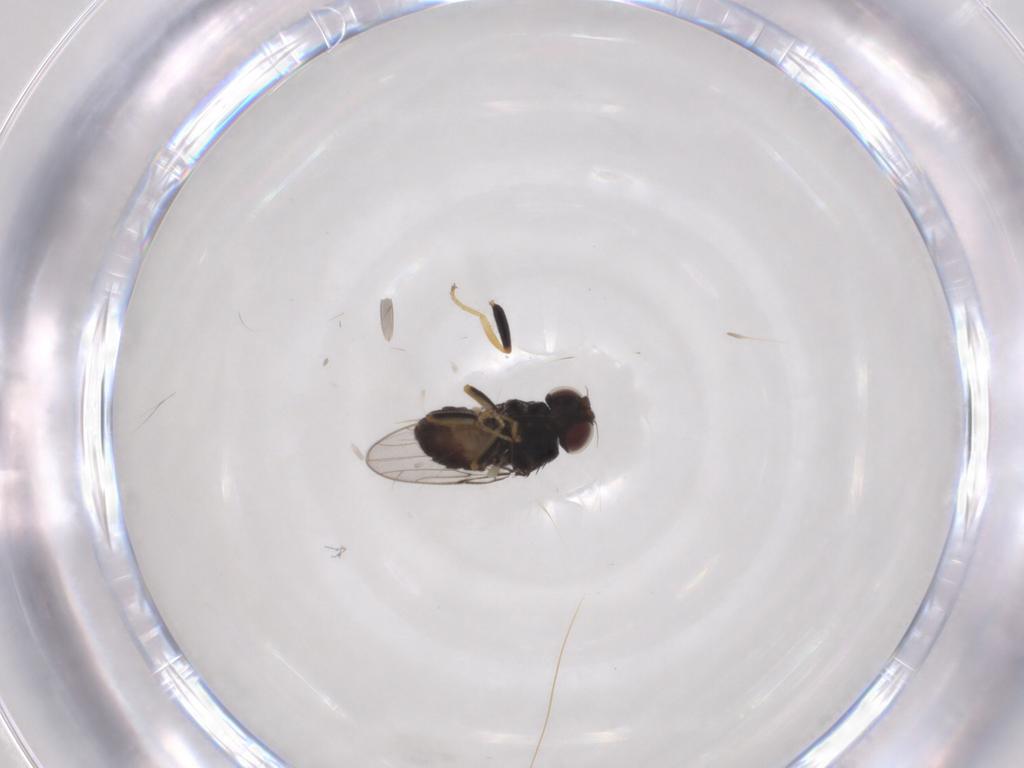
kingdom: Animalia
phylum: Arthropoda
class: Insecta
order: Diptera
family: Chloropidae
